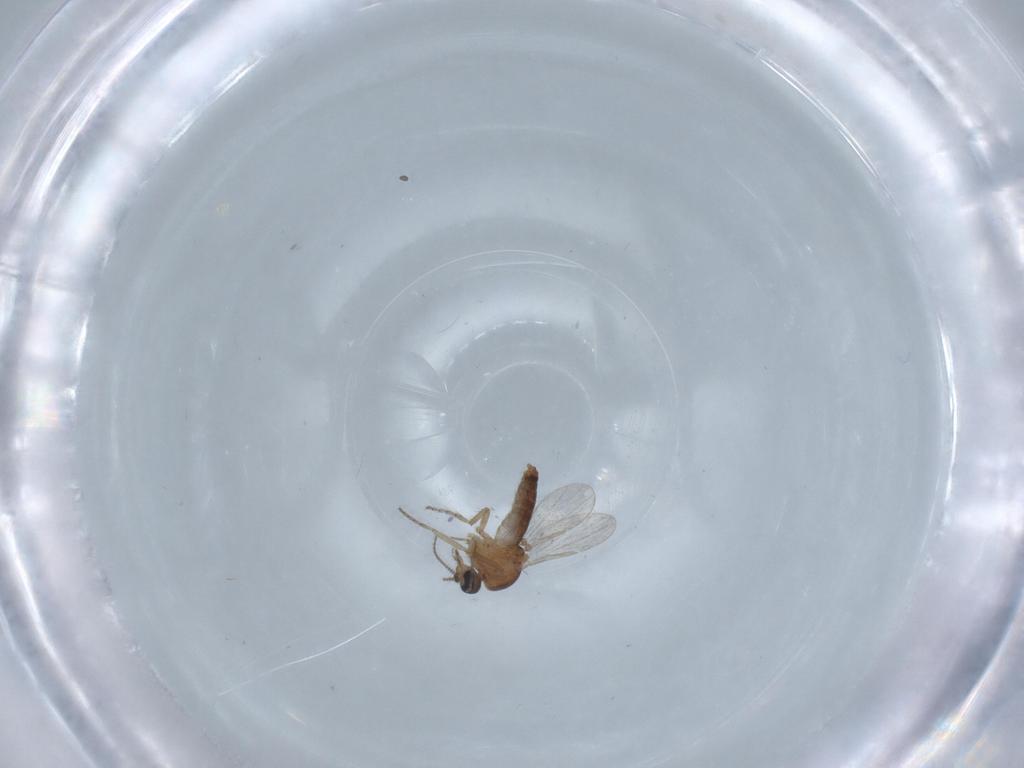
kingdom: Animalia
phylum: Arthropoda
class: Insecta
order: Diptera
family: Ceratopogonidae
